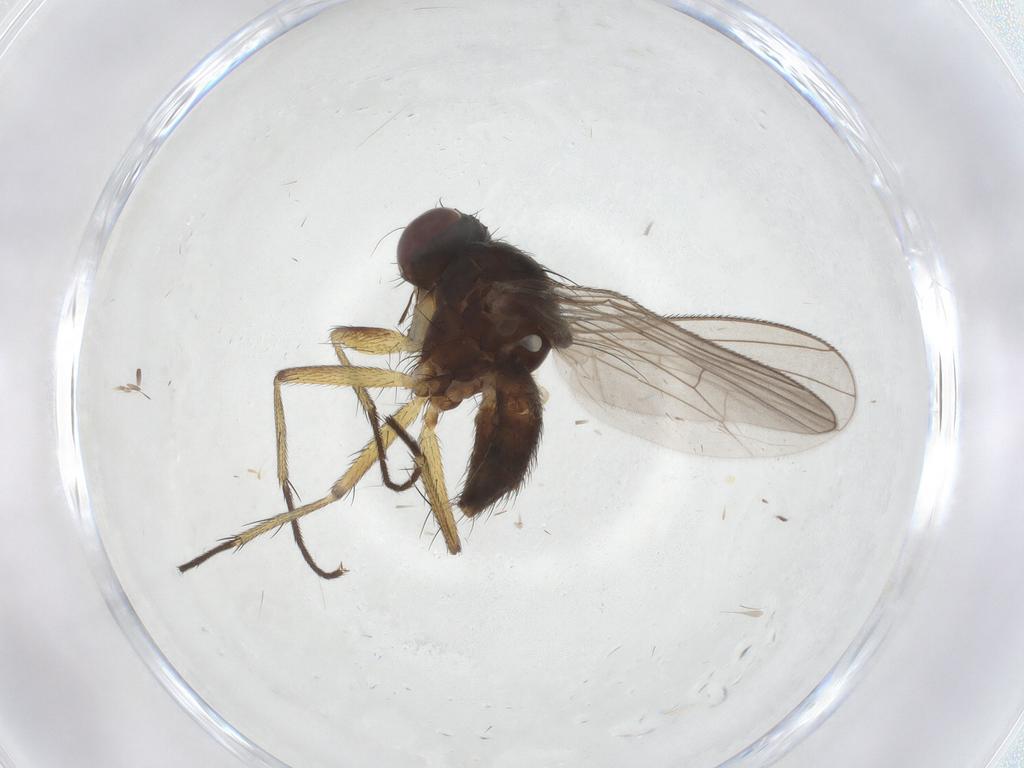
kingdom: Animalia
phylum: Arthropoda
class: Insecta
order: Diptera
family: Muscidae
